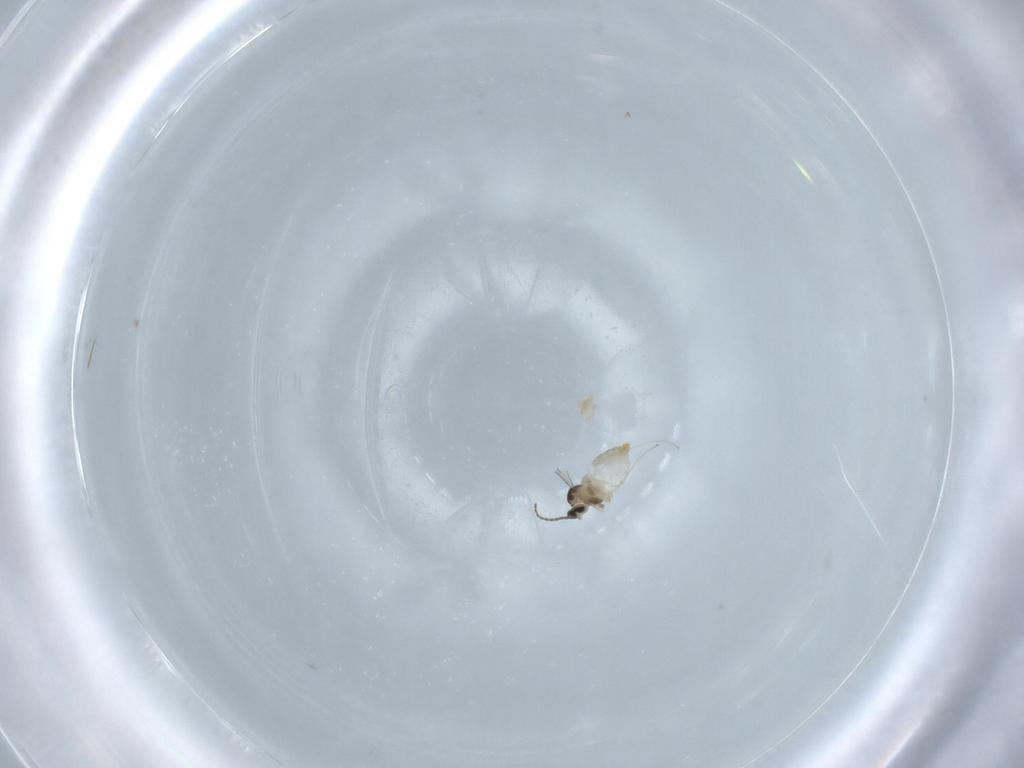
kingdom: Animalia
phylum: Arthropoda
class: Insecta
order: Diptera
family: Cecidomyiidae
